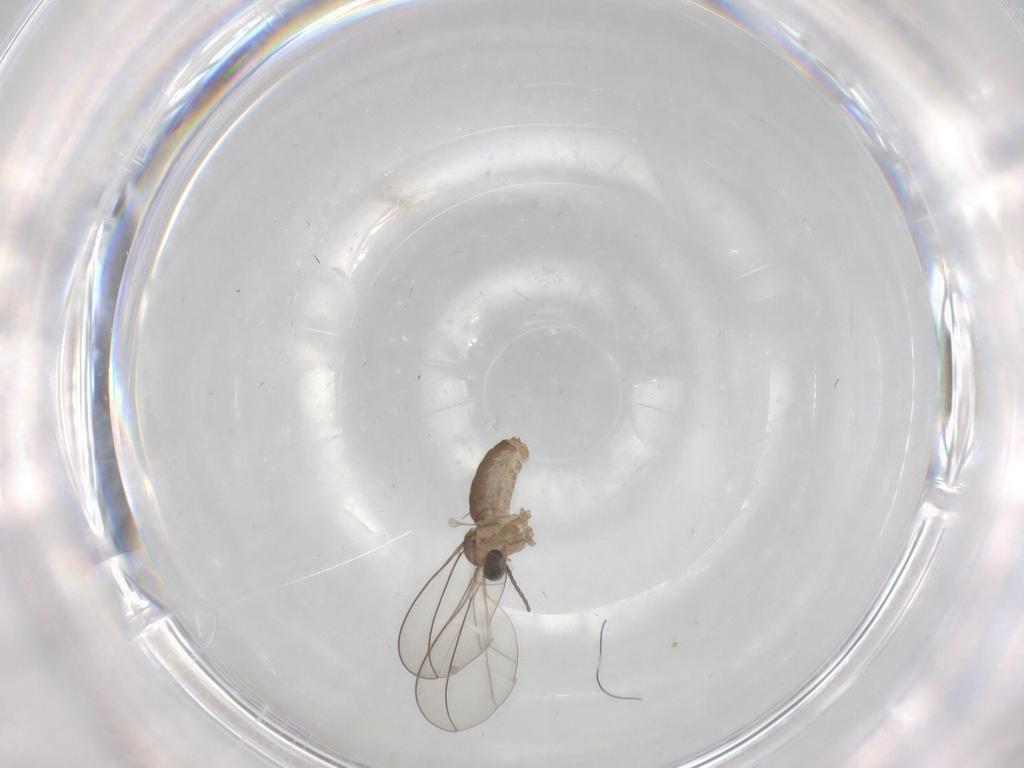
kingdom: Animalia
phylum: Arthropoda
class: Insecta
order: Diptera
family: Cecidomyiidae
